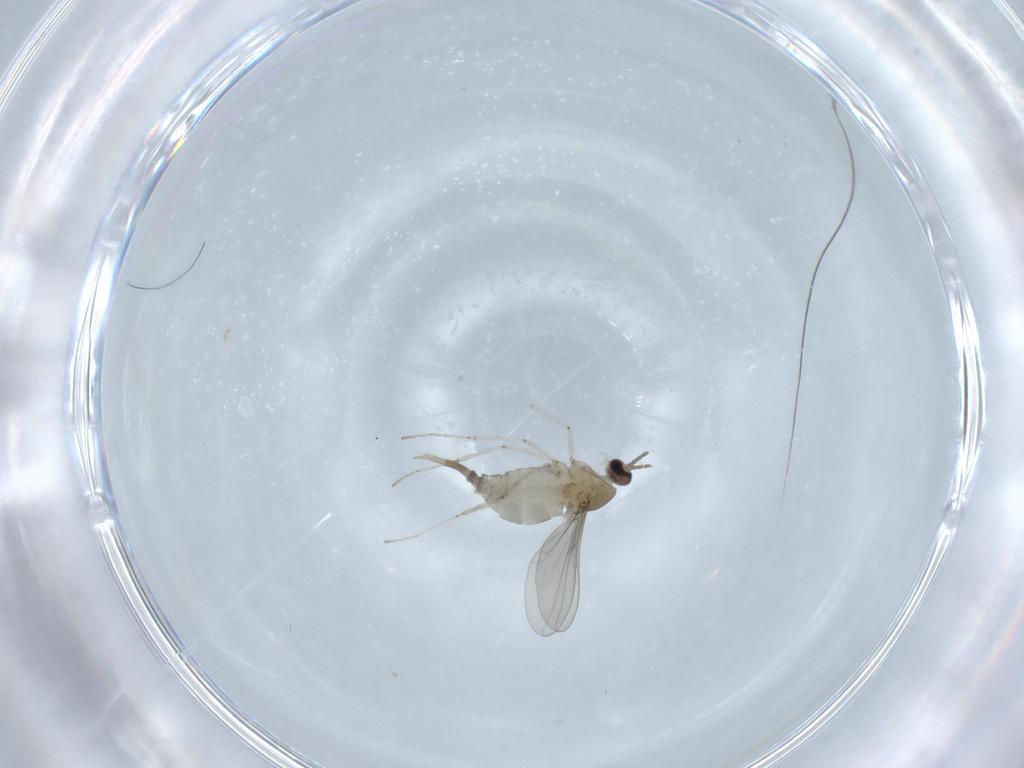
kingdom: Animalia
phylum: Arthropoda
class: Insecta
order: Diptera
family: Cecidomyiidae
